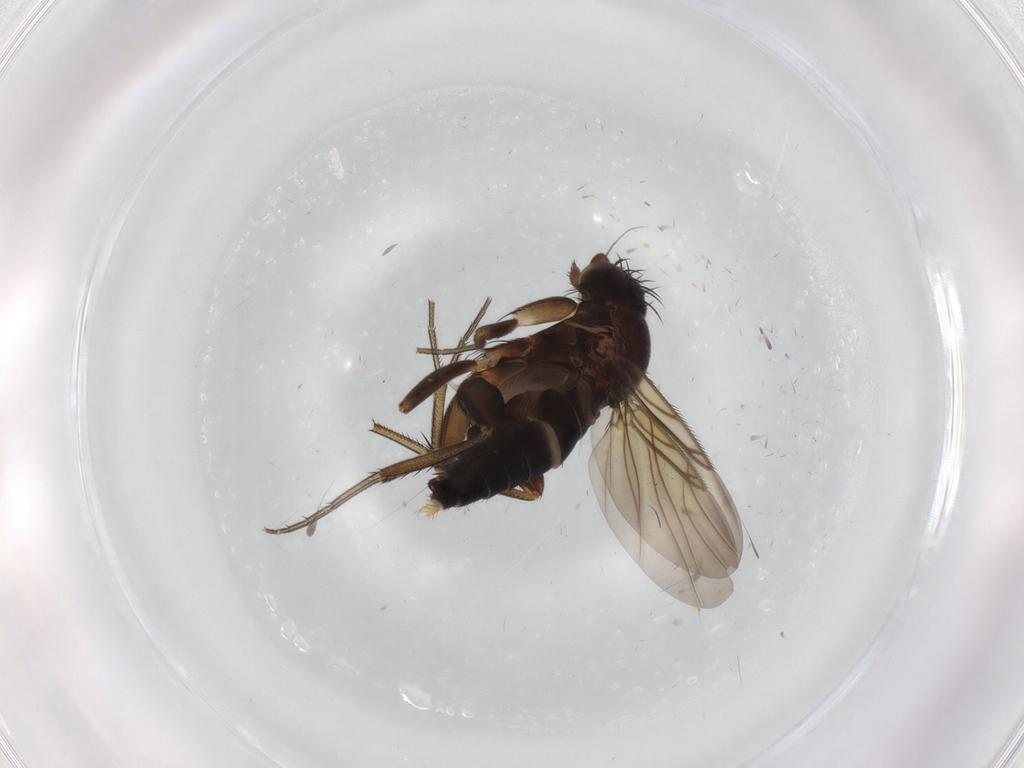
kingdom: Animalia
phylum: Arthropoda
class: Insecta
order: Diptera
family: Phoridae
